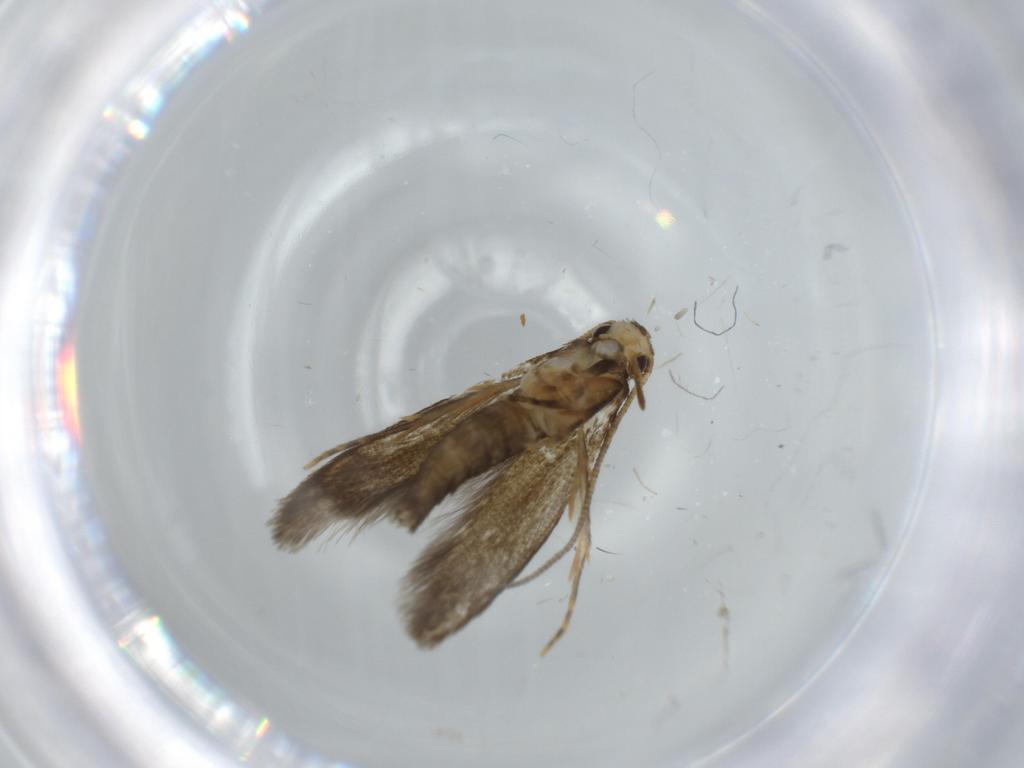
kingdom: Animalia
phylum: Arthropoda
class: Insecta
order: Lepidoptera
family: Tineidae
